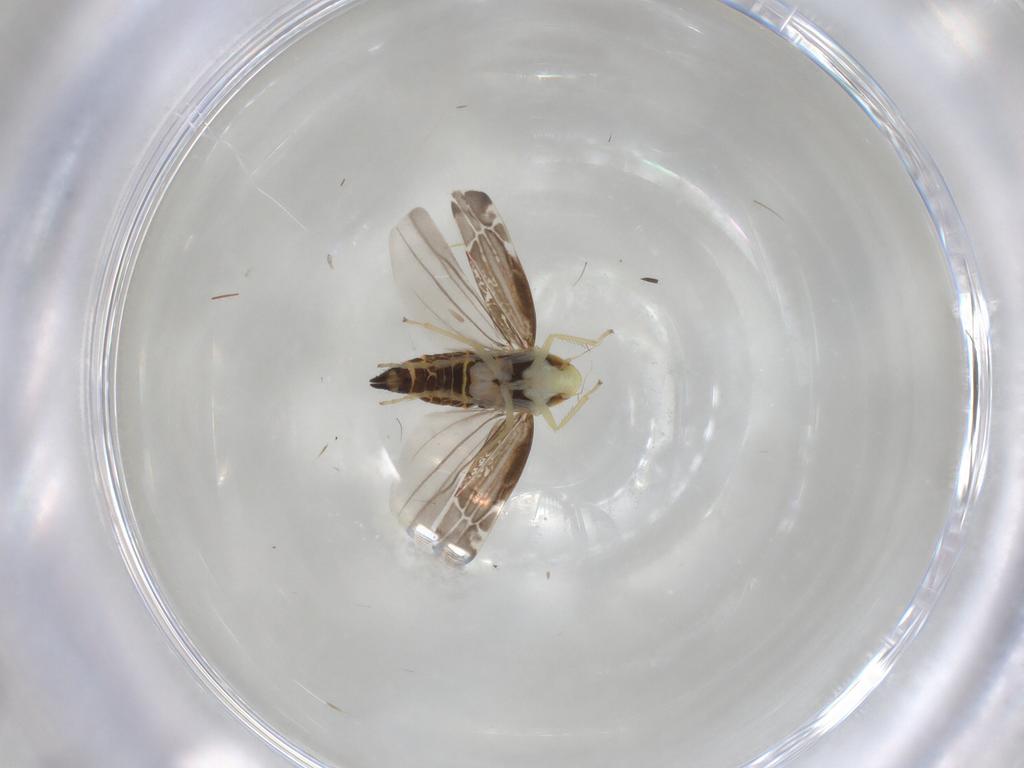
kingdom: Animalia
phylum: Arthropoda
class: Insecta
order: Hemiptera
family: Cicadellidae
